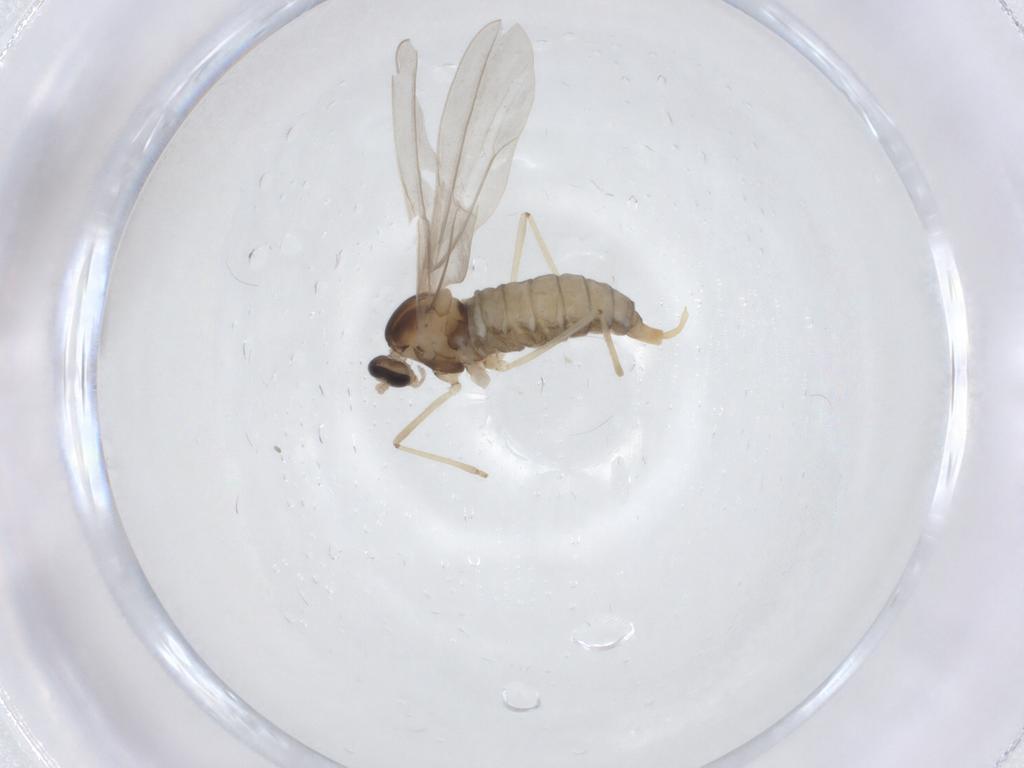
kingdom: Animalia
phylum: Arthropoda
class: Insecta
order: Diptera
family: Cecidomyiidae
